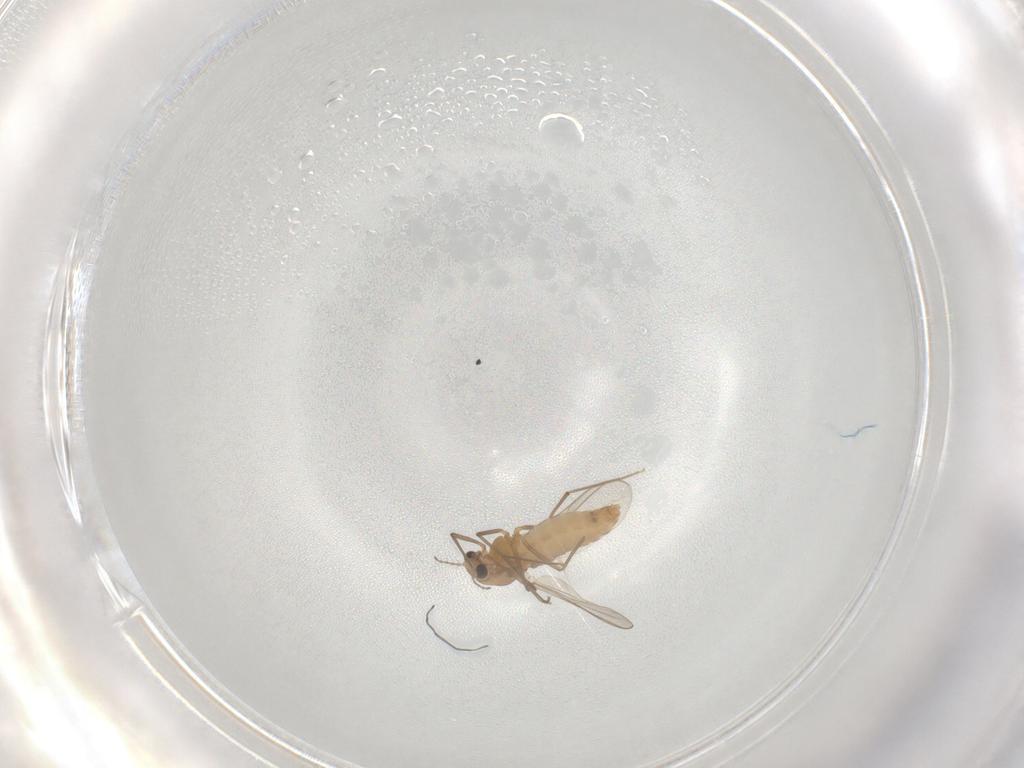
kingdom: Animalia
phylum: Arthropoda
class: Insecta
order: Diptera
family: Chironomidae
